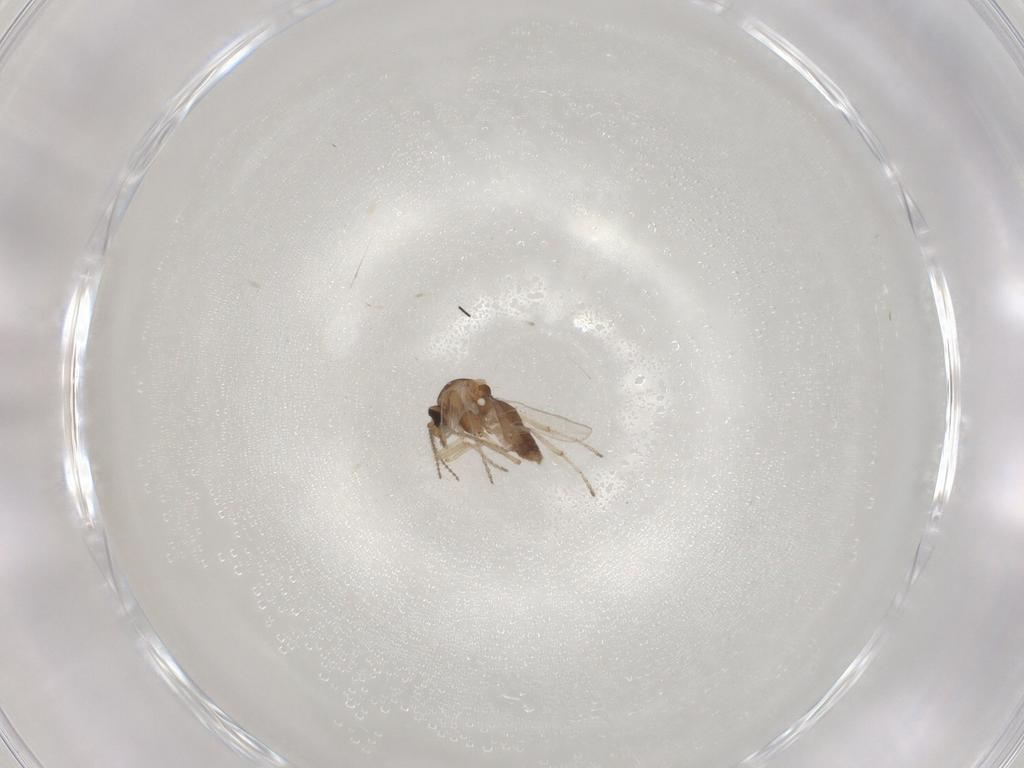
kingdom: Animalia
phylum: Arthropoda
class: Insecta
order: Diptera
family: Ceratopogonidae
